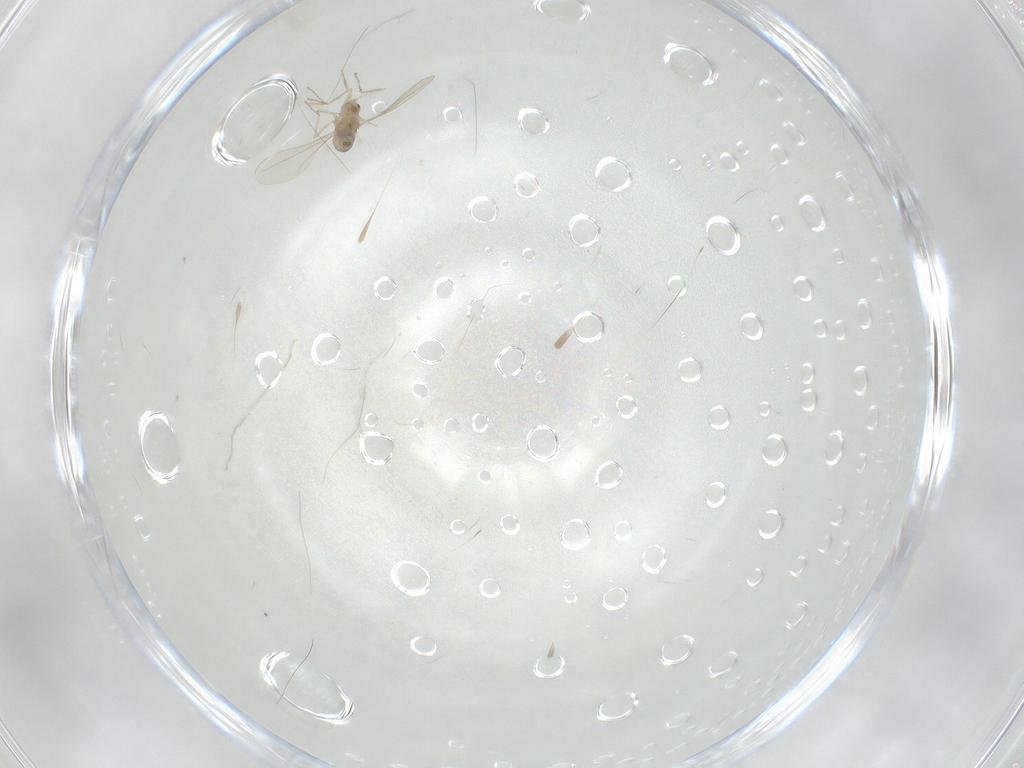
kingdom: Animalia
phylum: Arthropoda
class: Insecta
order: Diptera
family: Cecidomyiidae
